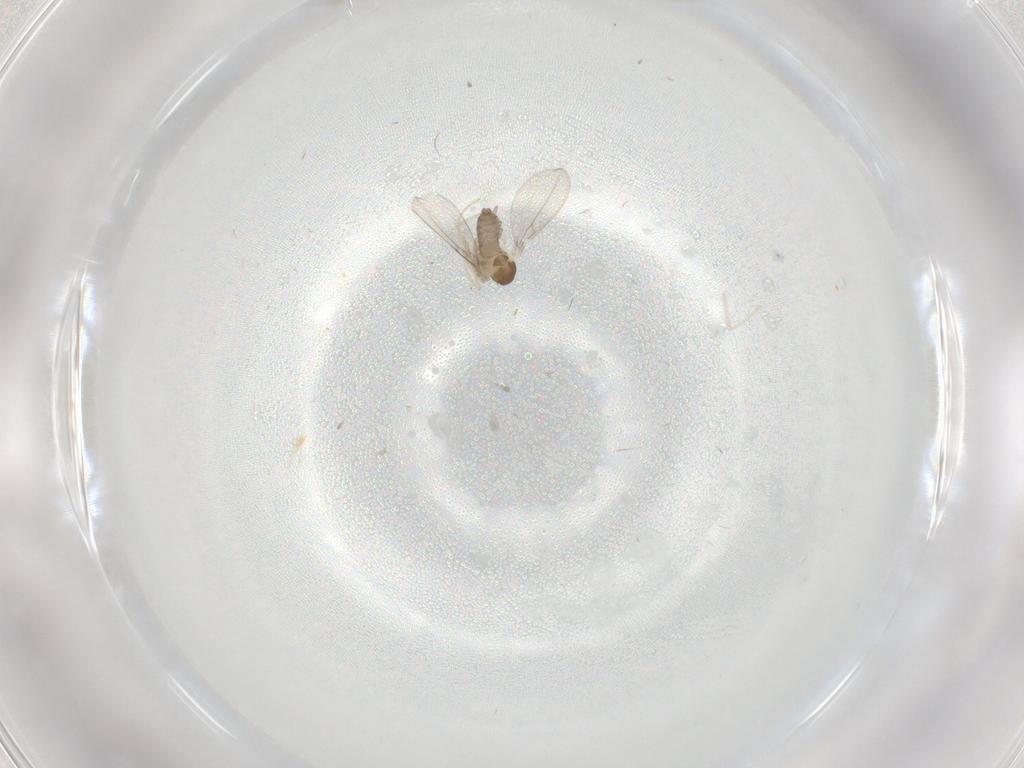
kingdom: Animalia
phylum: Arthropoda
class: Insecta
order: Diptera
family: Cecidomyiidae
